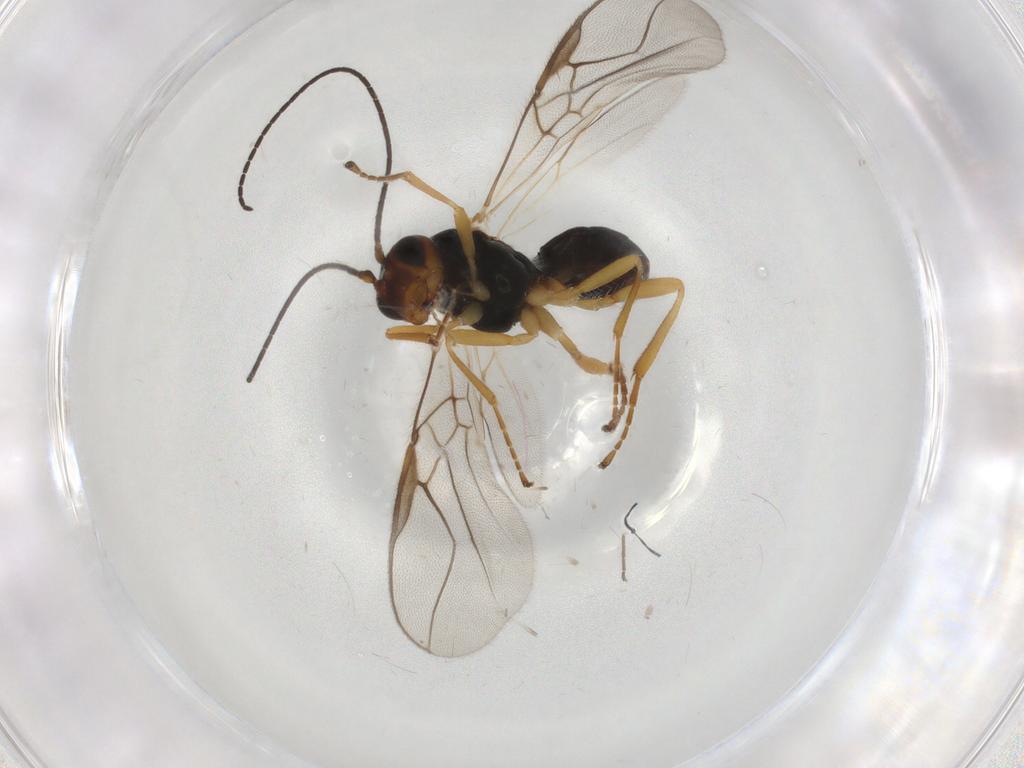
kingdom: Animalia
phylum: Arthropoda
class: Insecta
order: Hymenoptera
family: Braconidae
